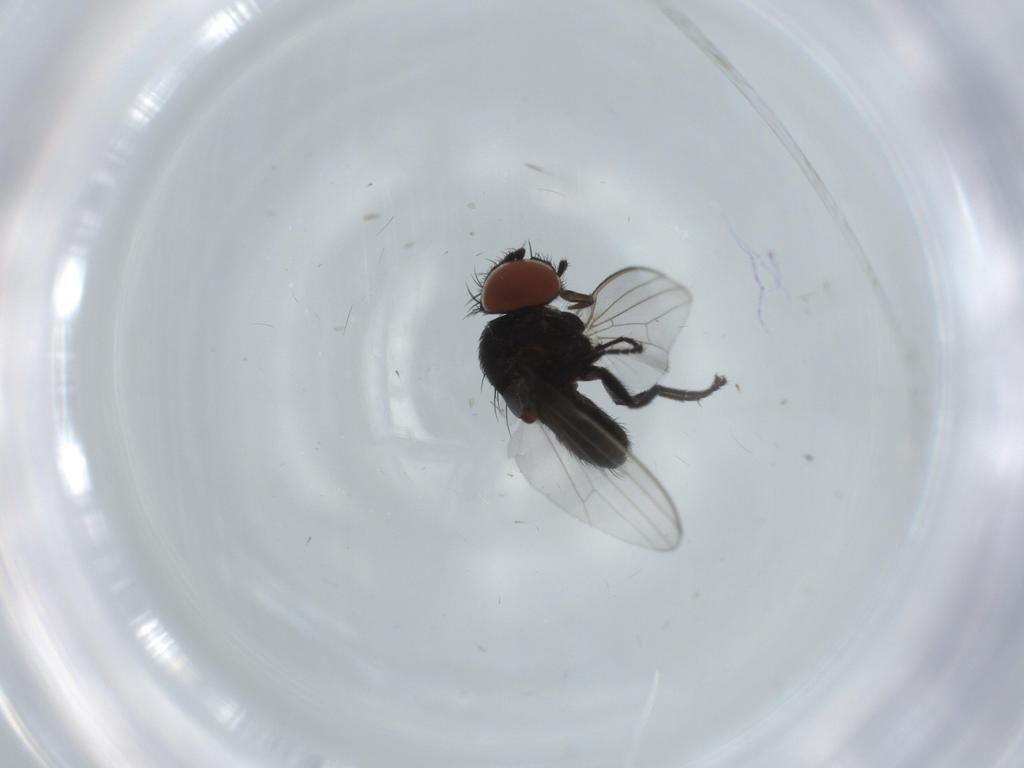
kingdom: Animalia
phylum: Arthropoda
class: Insecta
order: Diptera
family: Milichiidae
